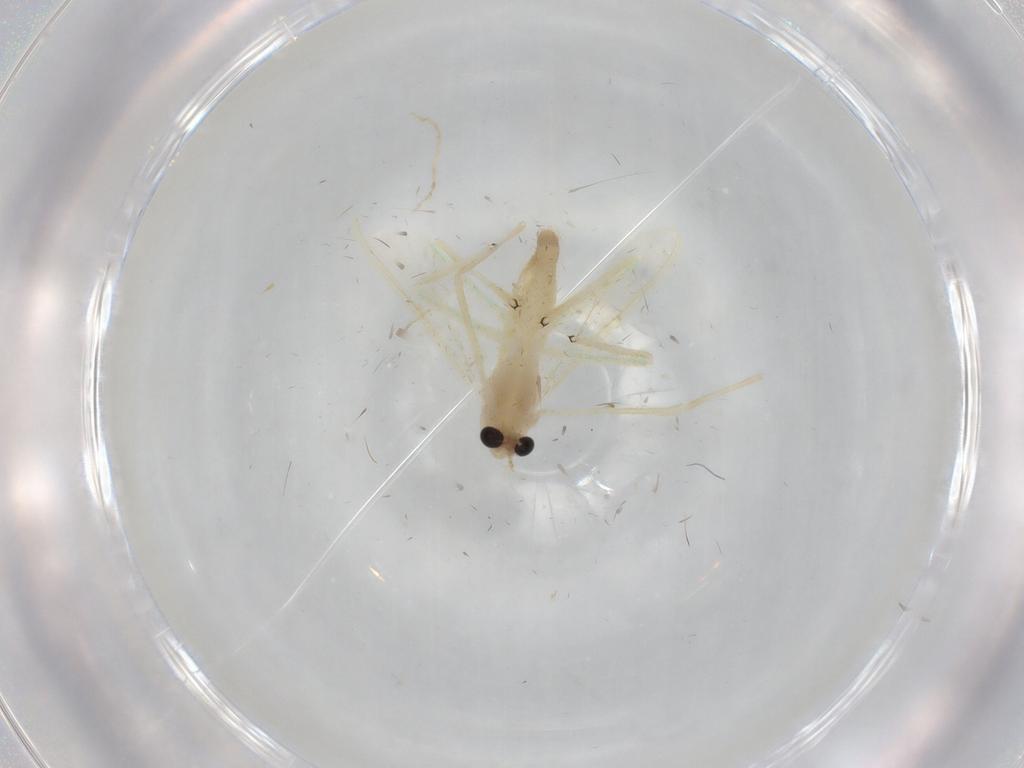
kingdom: Animalia
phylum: Arthropoda
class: Insecta
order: Diptera
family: Chironomidae
